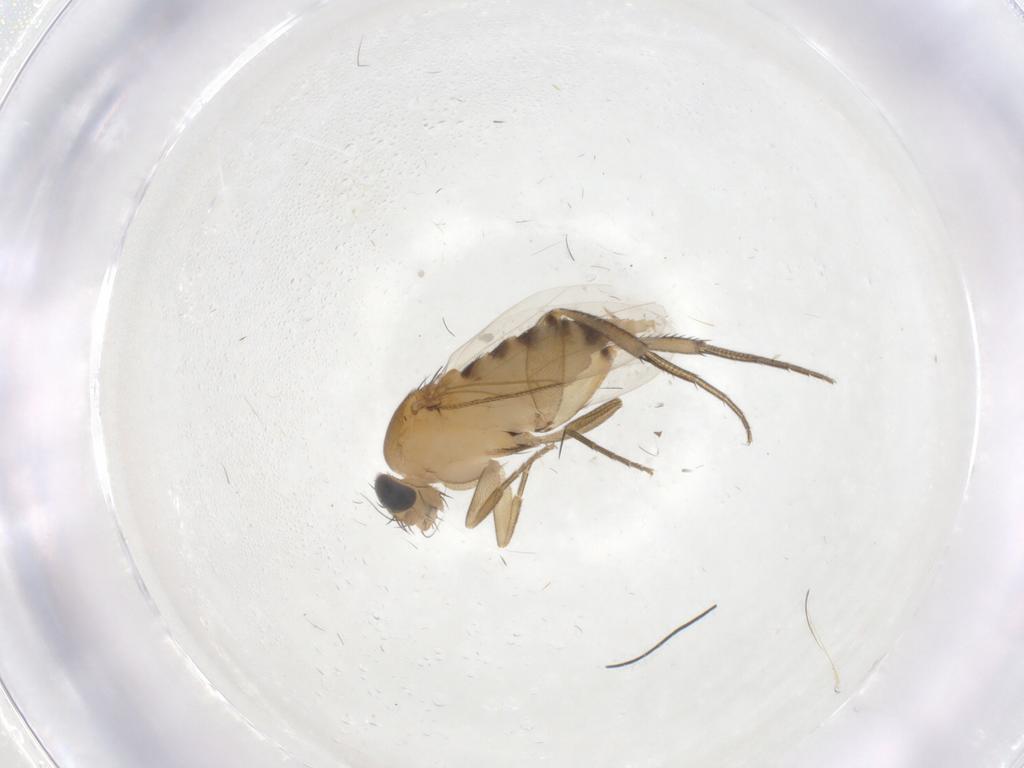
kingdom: Animalia
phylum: Arthropoda
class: Insecta
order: Diptera
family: Phoridae
